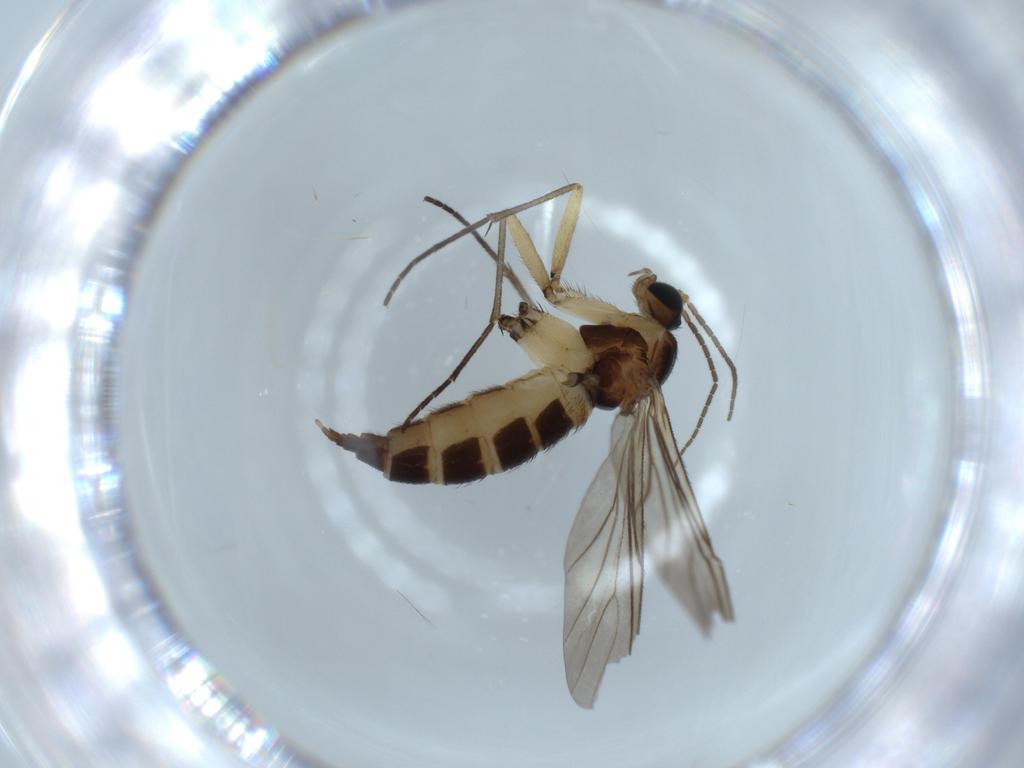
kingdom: Animalia
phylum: Arthropoda
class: Insecta
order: Diptera
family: Sciaridae
